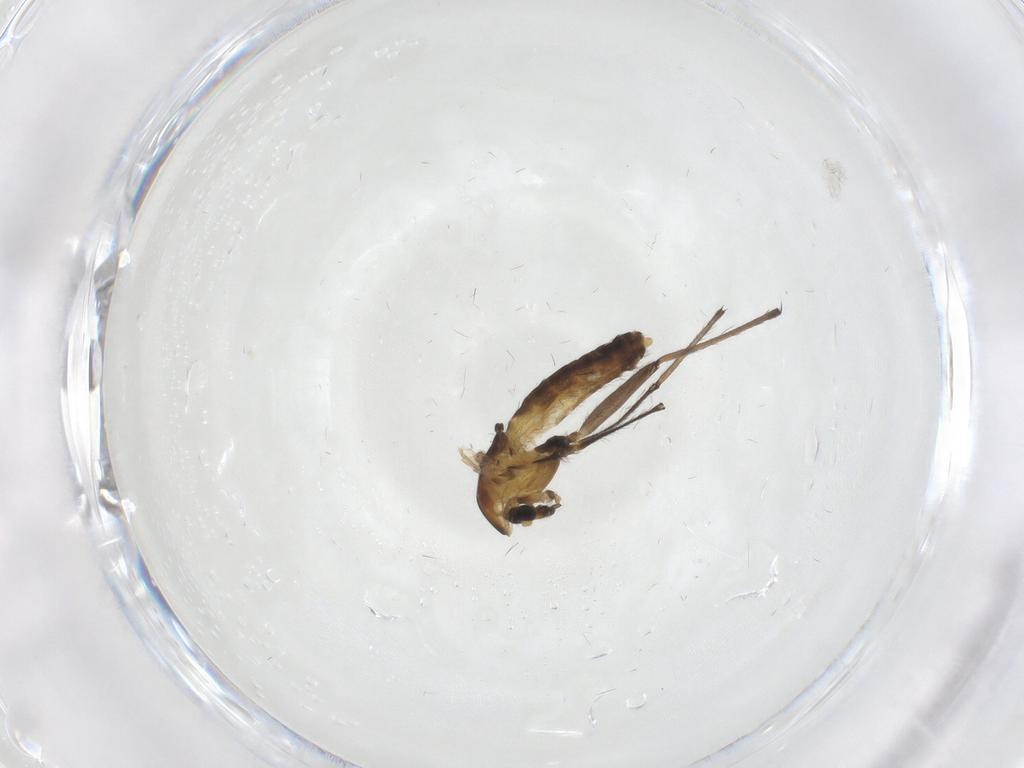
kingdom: Animalia
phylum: Arthropoda
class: Insecta
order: Diptera
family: Chironomidae
